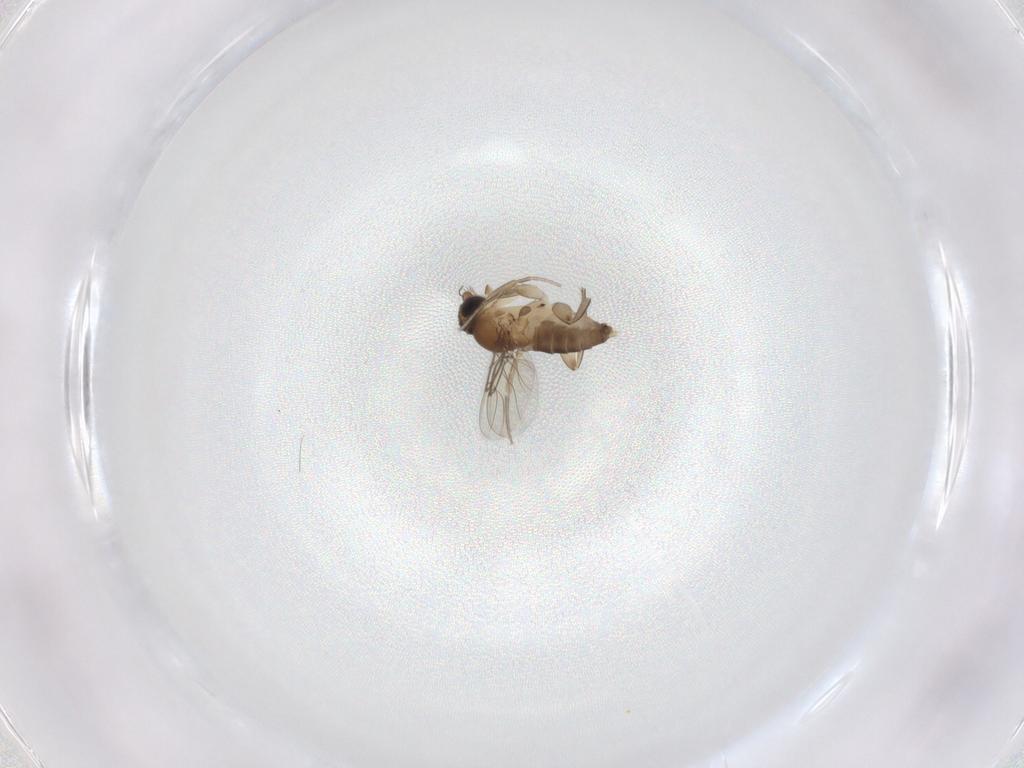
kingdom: Animalia
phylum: Arthropoda
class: Insecta
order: Diptera
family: Phoridae
